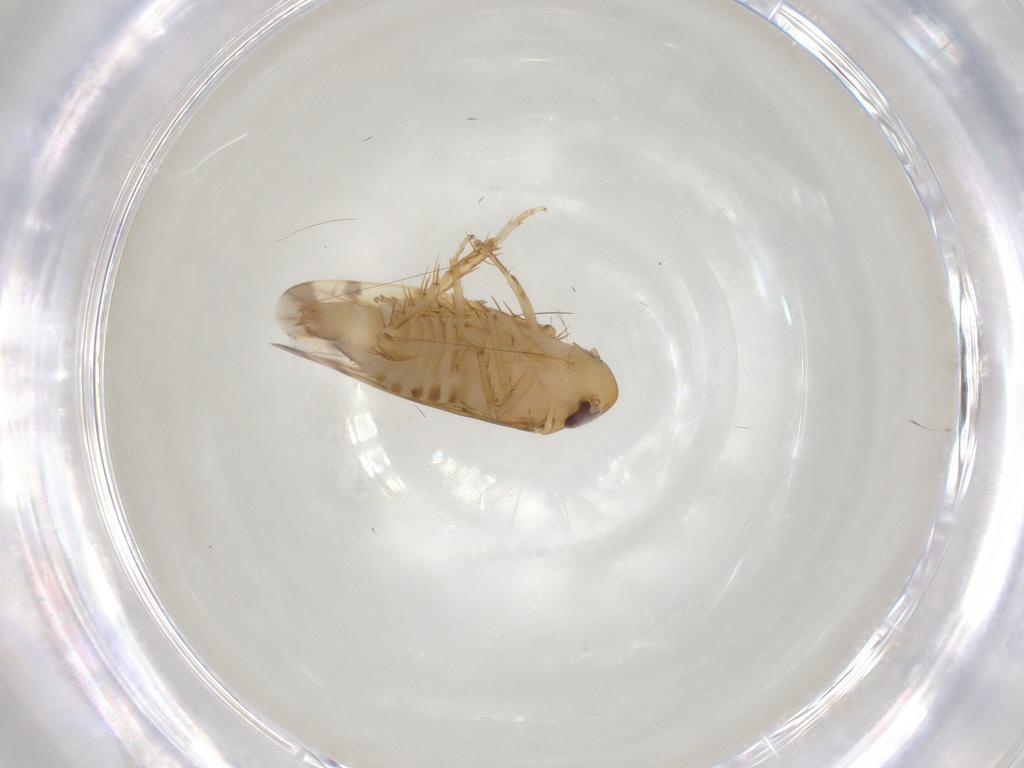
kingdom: Animalia
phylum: Arthropoda
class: Insecta
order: Hemiptera
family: Cicadellidae
